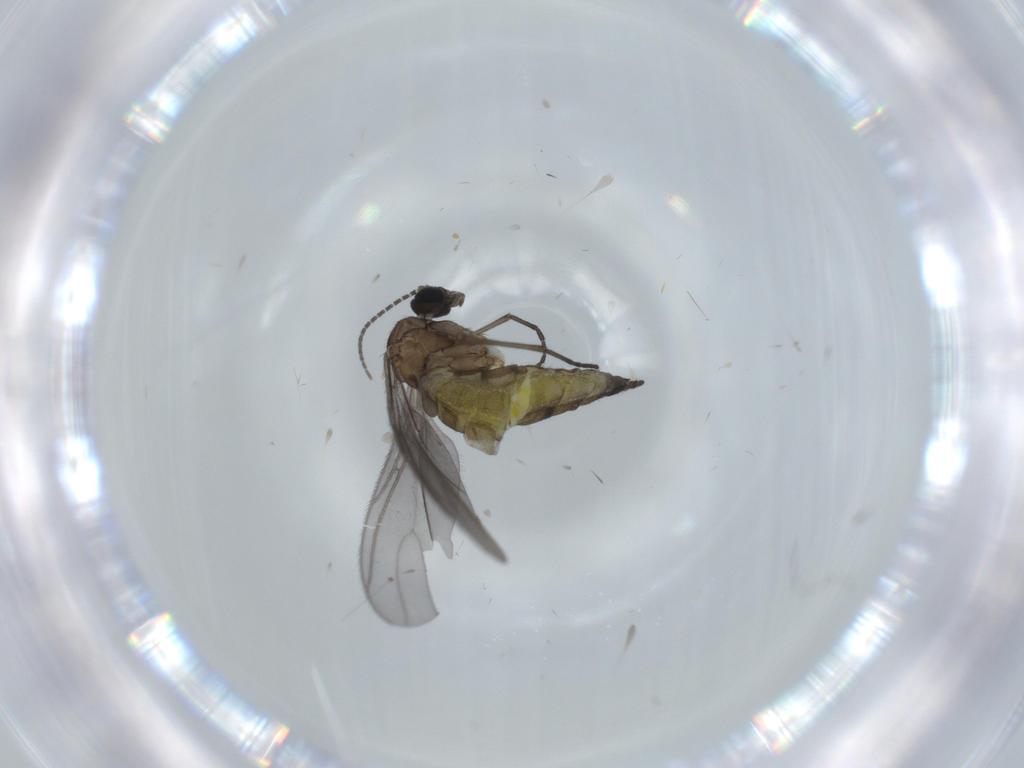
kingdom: Animalia
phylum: Arthropoda
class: Insecta
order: Diptera
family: Sciaridae
